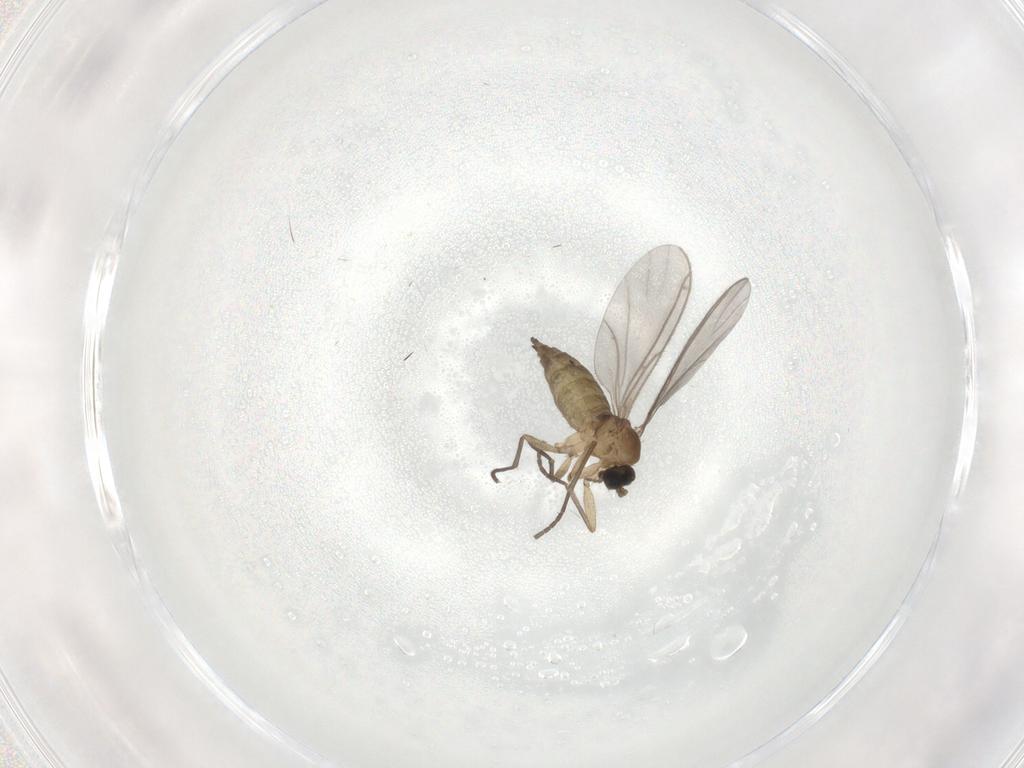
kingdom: Animalia
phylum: Arthropoda
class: Insecta
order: Diptera
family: Sciaridae
